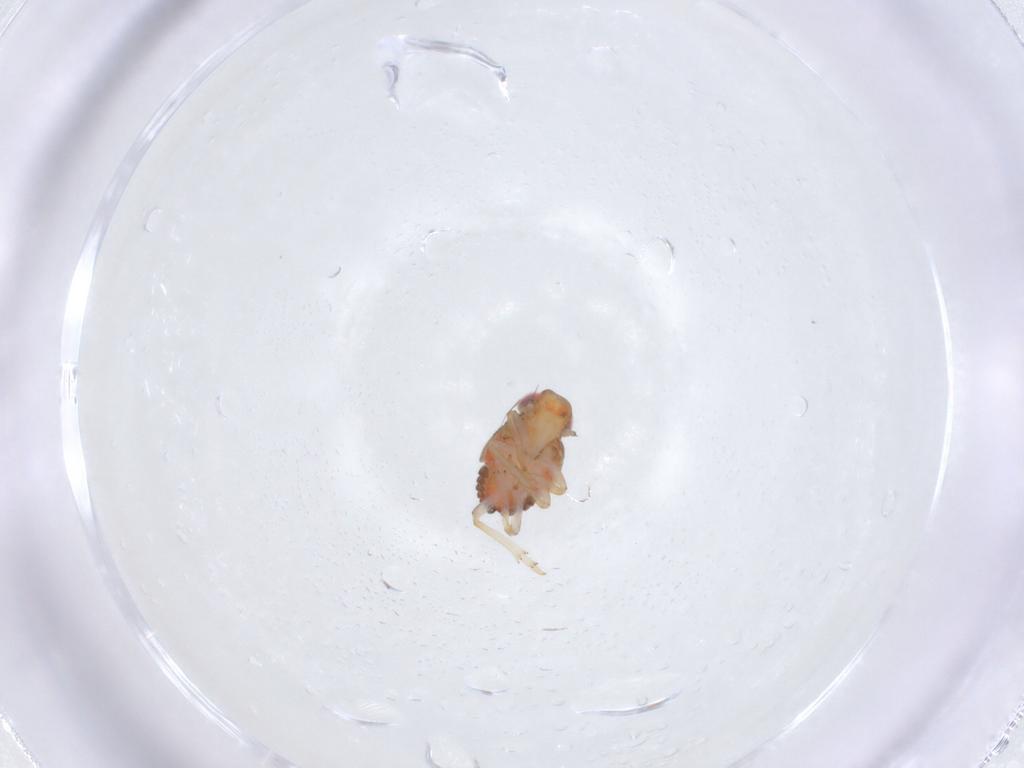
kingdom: Animalia
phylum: Arthropoda
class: Insecta
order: Hemiptera
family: Issidae
